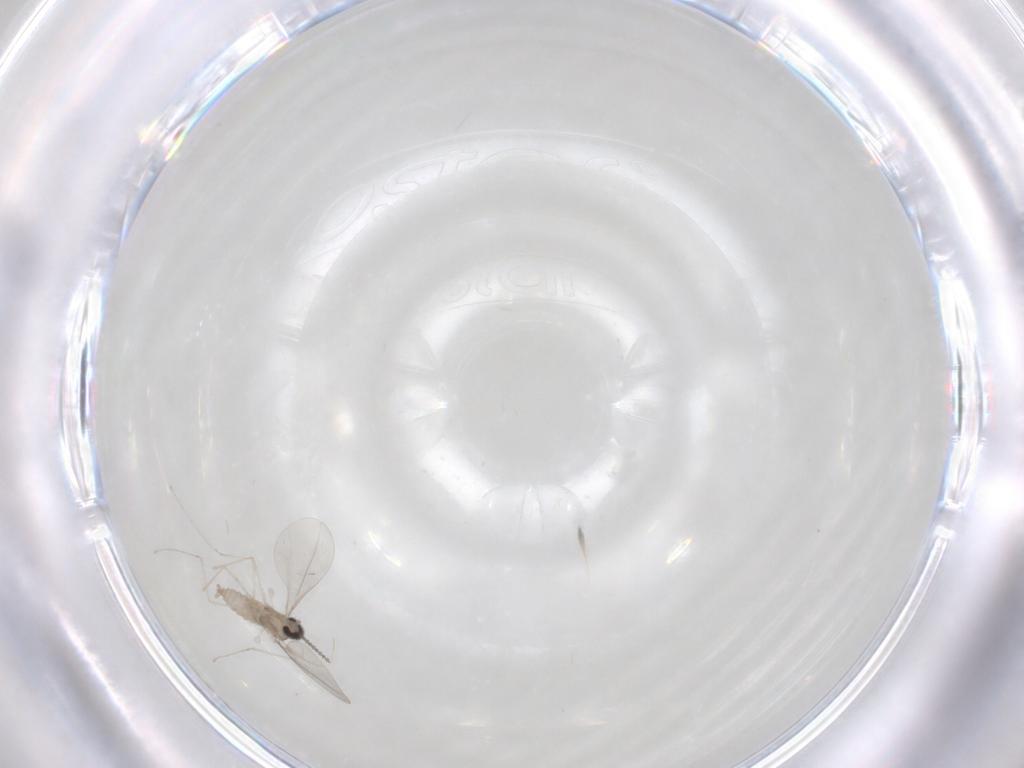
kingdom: Animalia
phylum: Arthropoda
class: Insecta
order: Diptera
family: Cecidomyiidae
